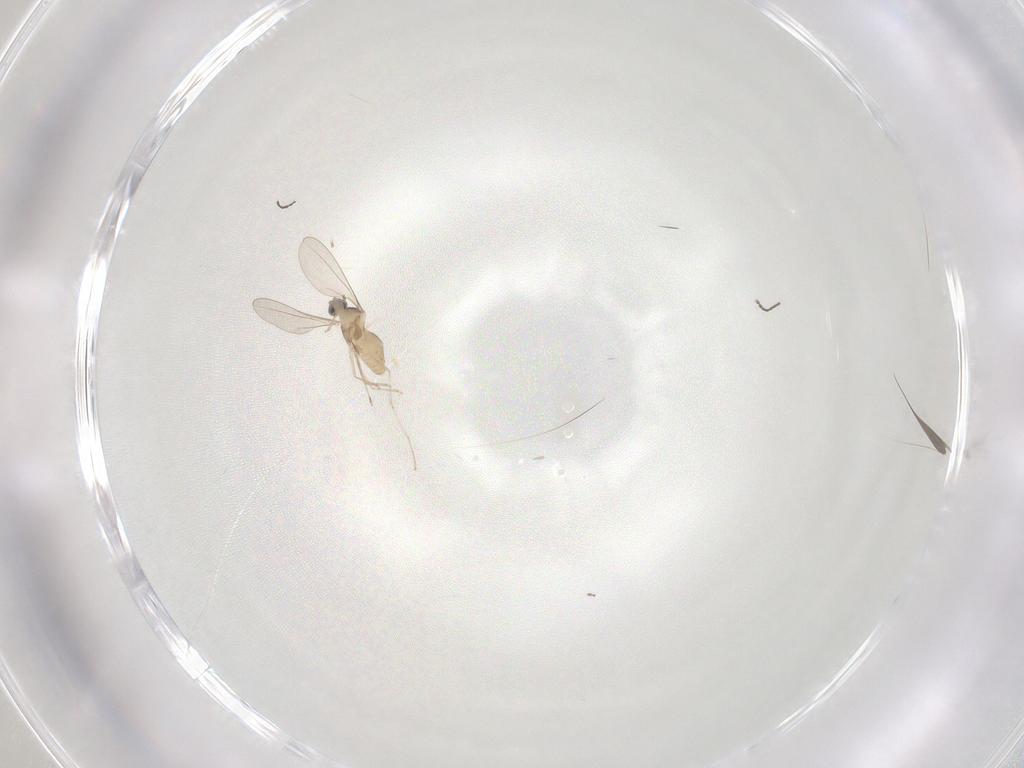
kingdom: Animalia
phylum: Arthropoda
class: Insecta
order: Diptera
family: Cecidomyiidae
